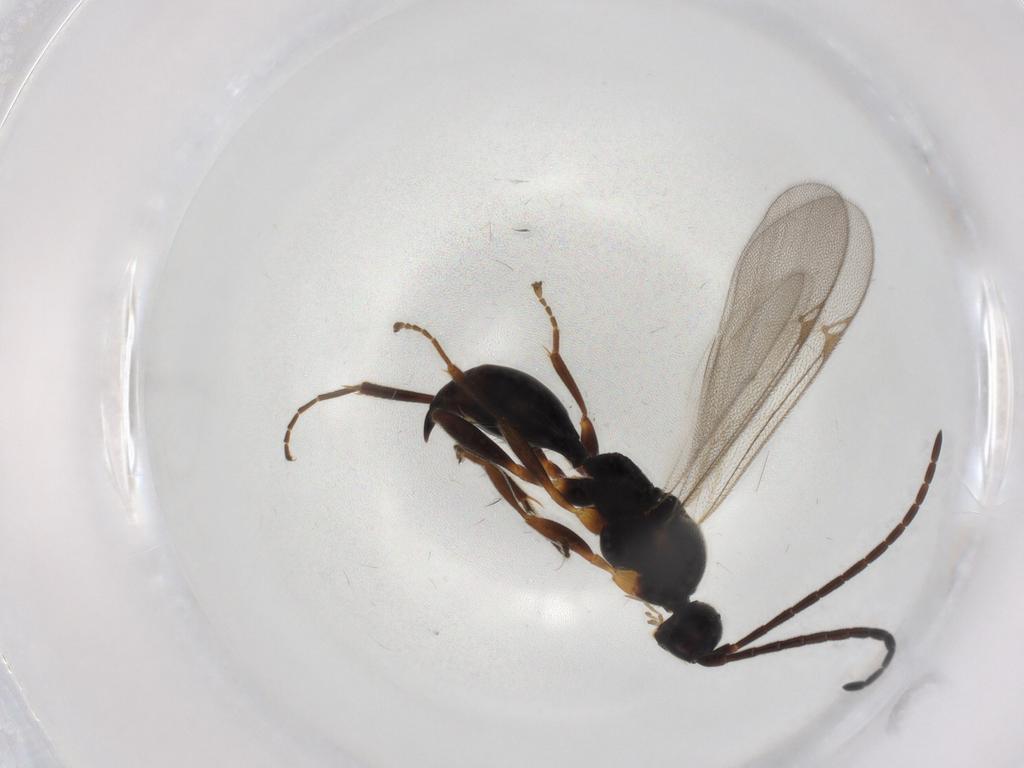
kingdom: Animalia
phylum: Arthropoda
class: Insecta
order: Hymenoptera
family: Proctotrupidae
